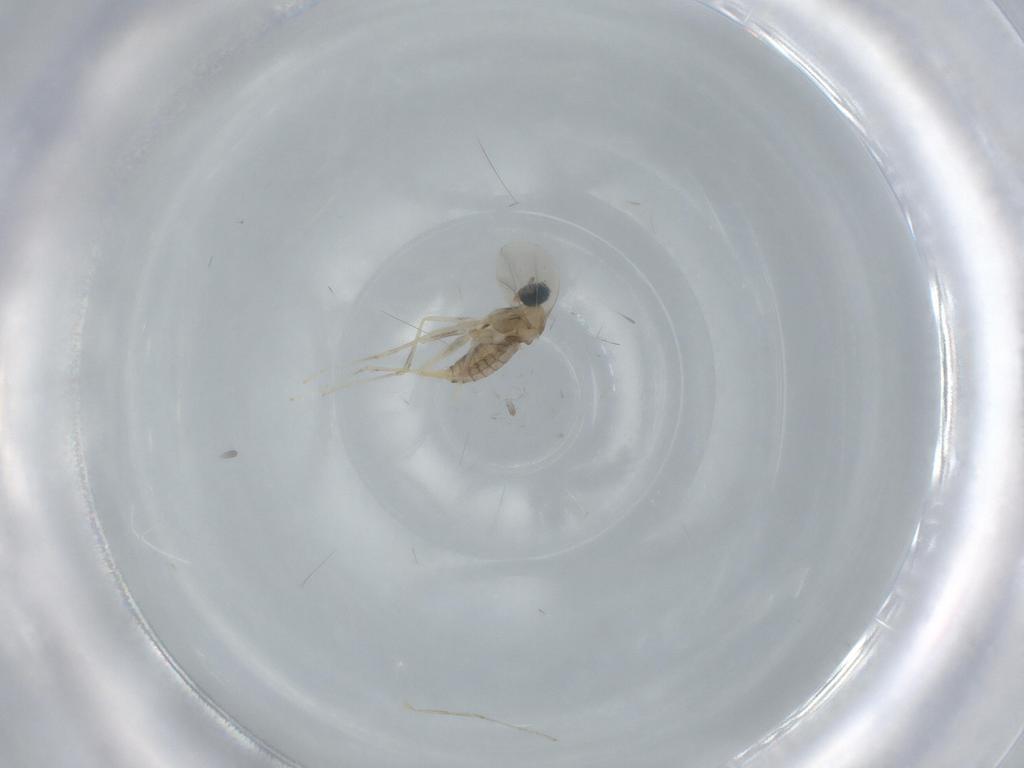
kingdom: Animalia
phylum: Arthropoda
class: Insecta
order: Diptera
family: Cecidomyiidae
